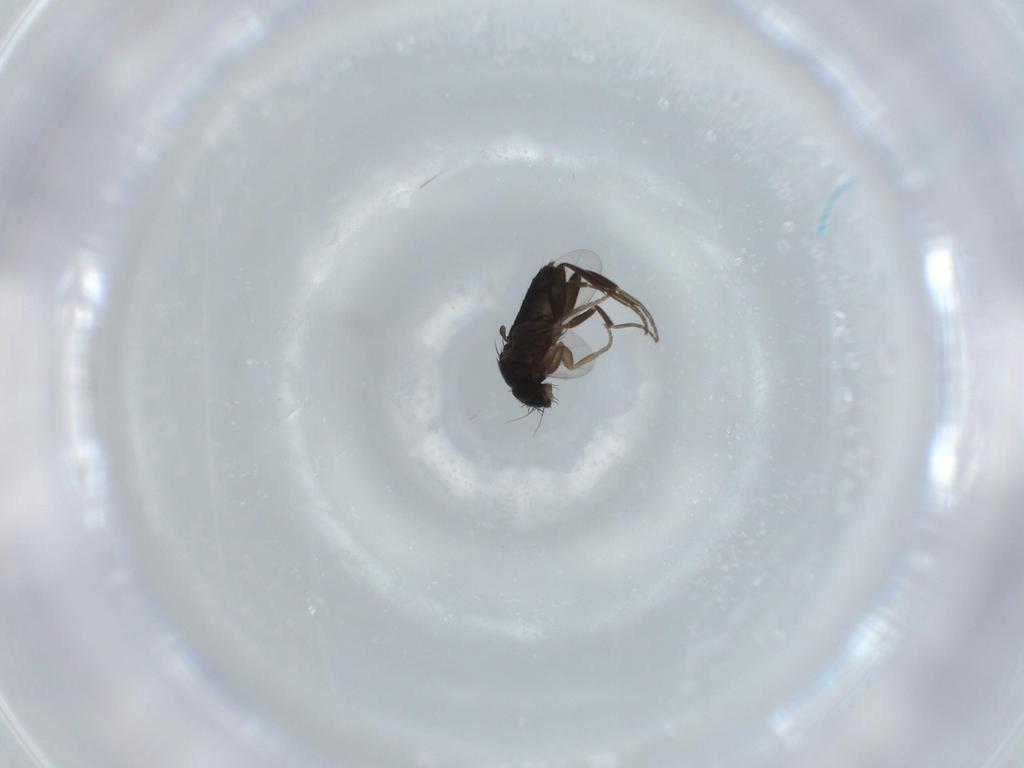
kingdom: Animalia
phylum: Arthropoda
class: Insecta
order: Diptera
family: Phoridae
